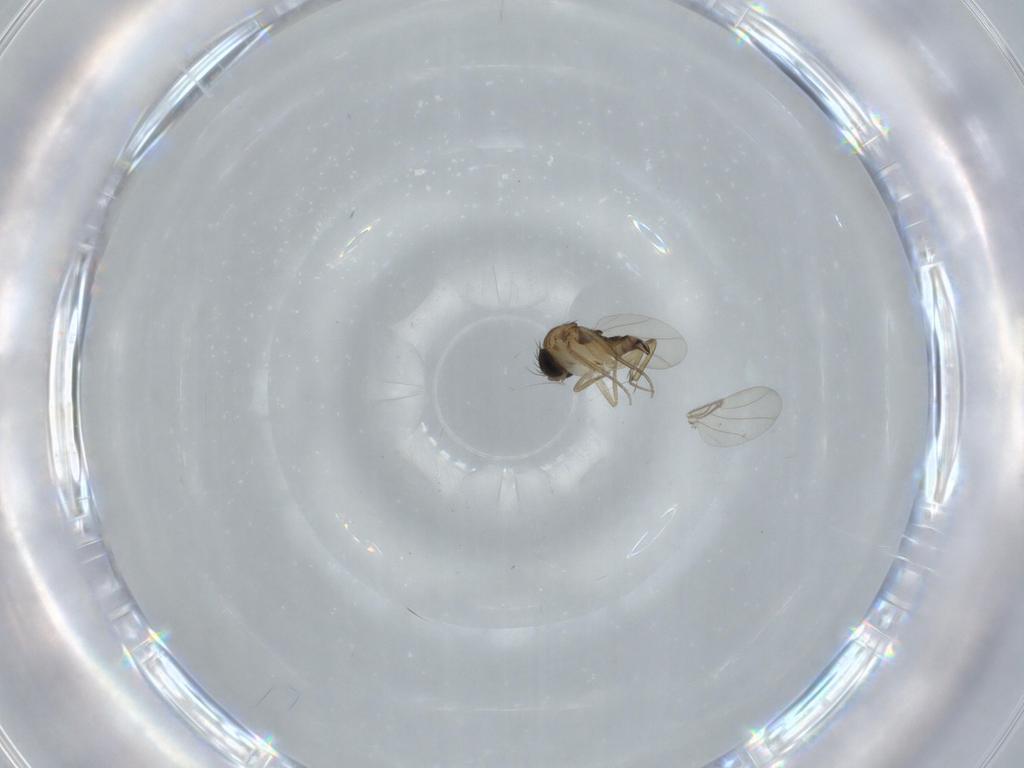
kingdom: Animalia
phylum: Arthropoda
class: Insecta
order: Diptera
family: Phoridae
